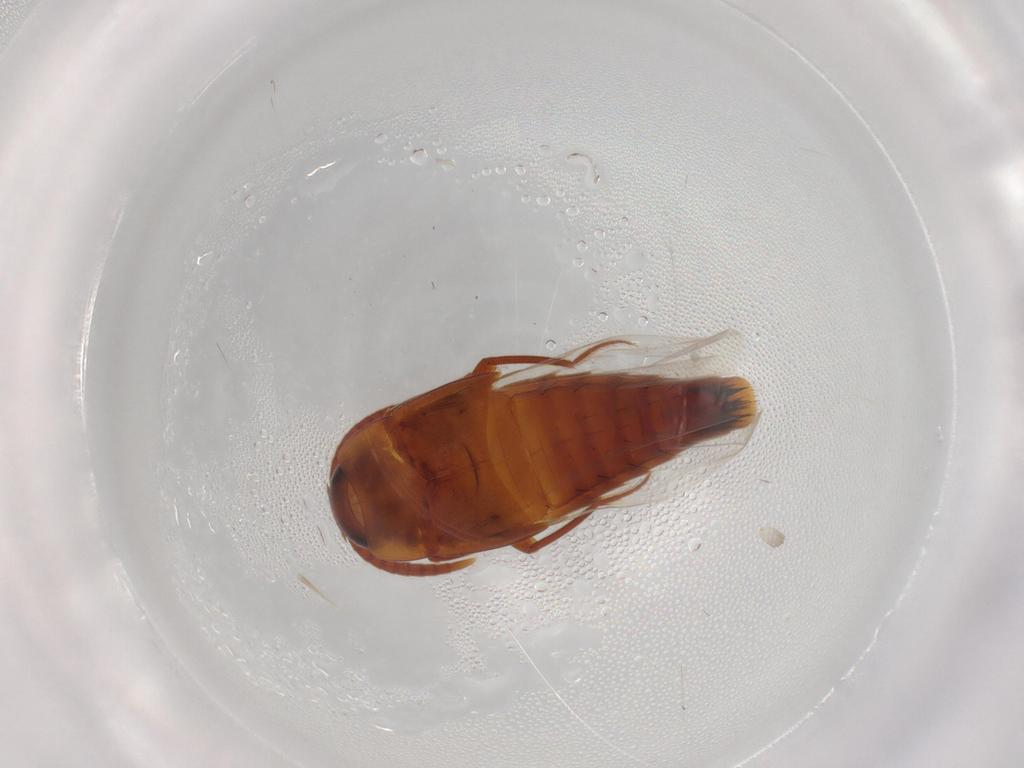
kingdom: Animalia
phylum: Arthropoda
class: Insecta
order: Coleoptera
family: Staphylinidae
